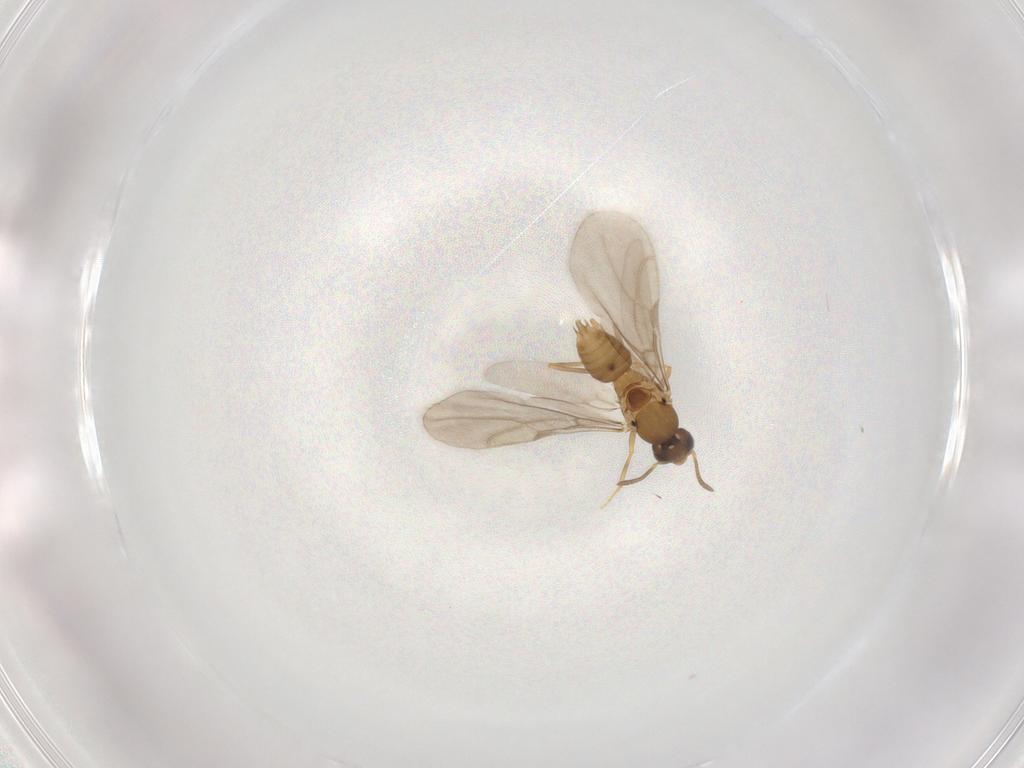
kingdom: Animalia
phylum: Arthropoda
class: Insecta
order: Hymenoptera
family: Formicidae
